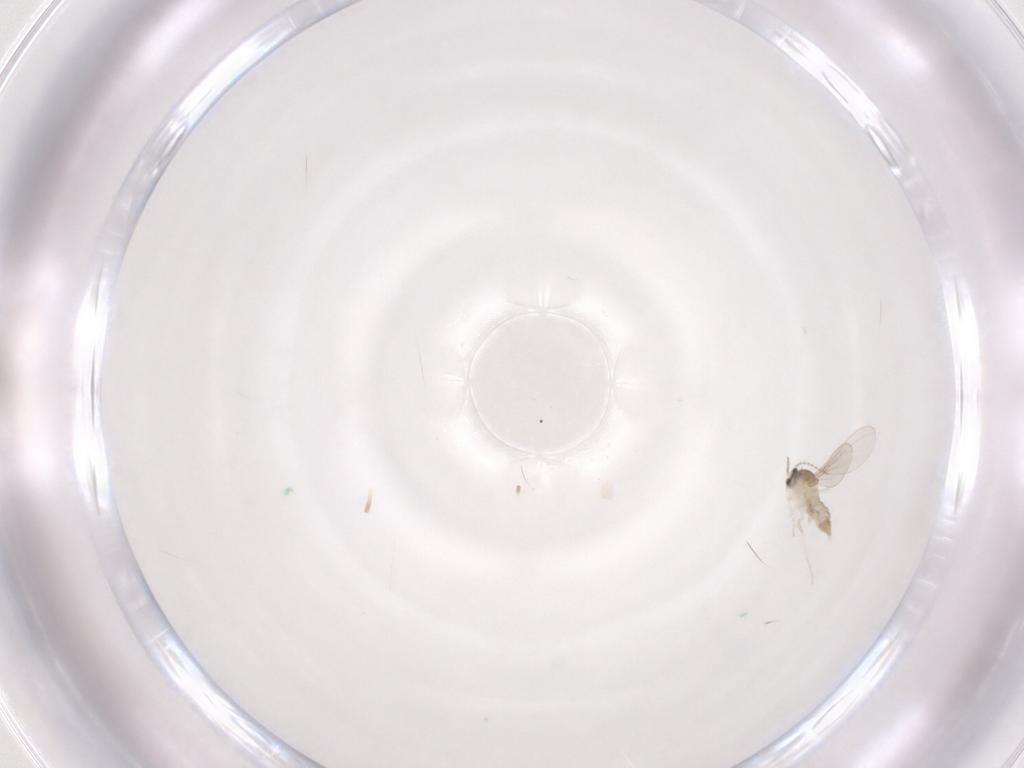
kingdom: Animalia
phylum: Arthropoda
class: Insecta
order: Diptera
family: Cecidomyiidae
